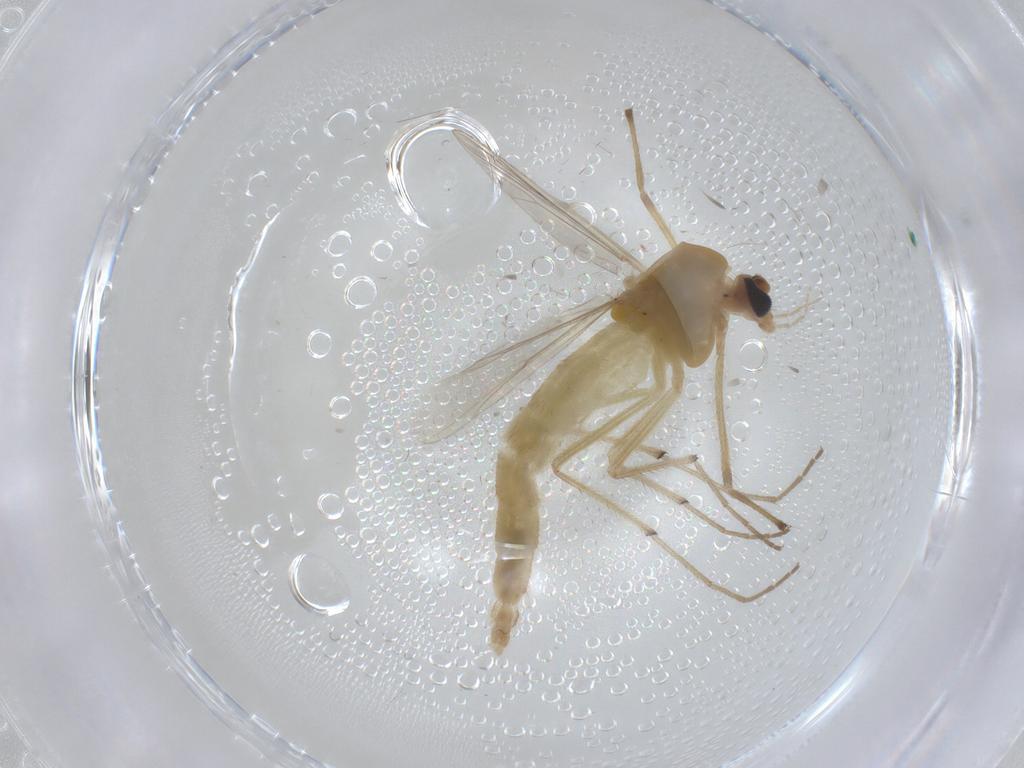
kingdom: Animalia
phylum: Arthropoda
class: Insecta
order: Diptera
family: Chironomidae
